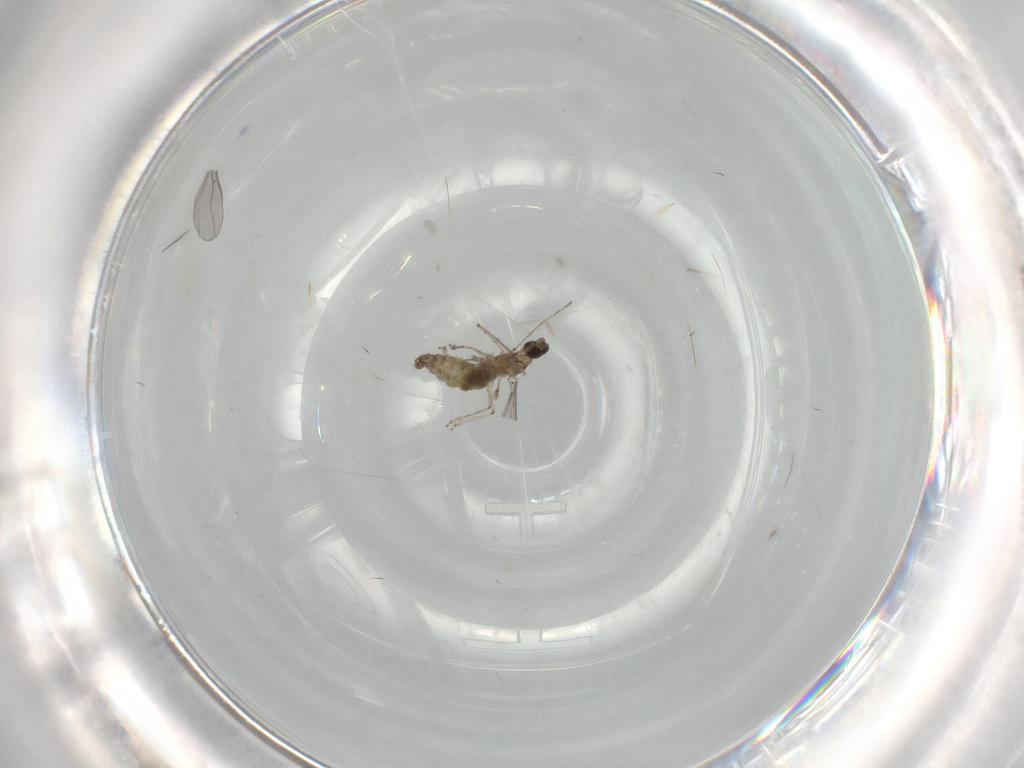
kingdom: Animalia
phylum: Arthropoda
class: Insecta
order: Diptera
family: Cecidomyiidae
